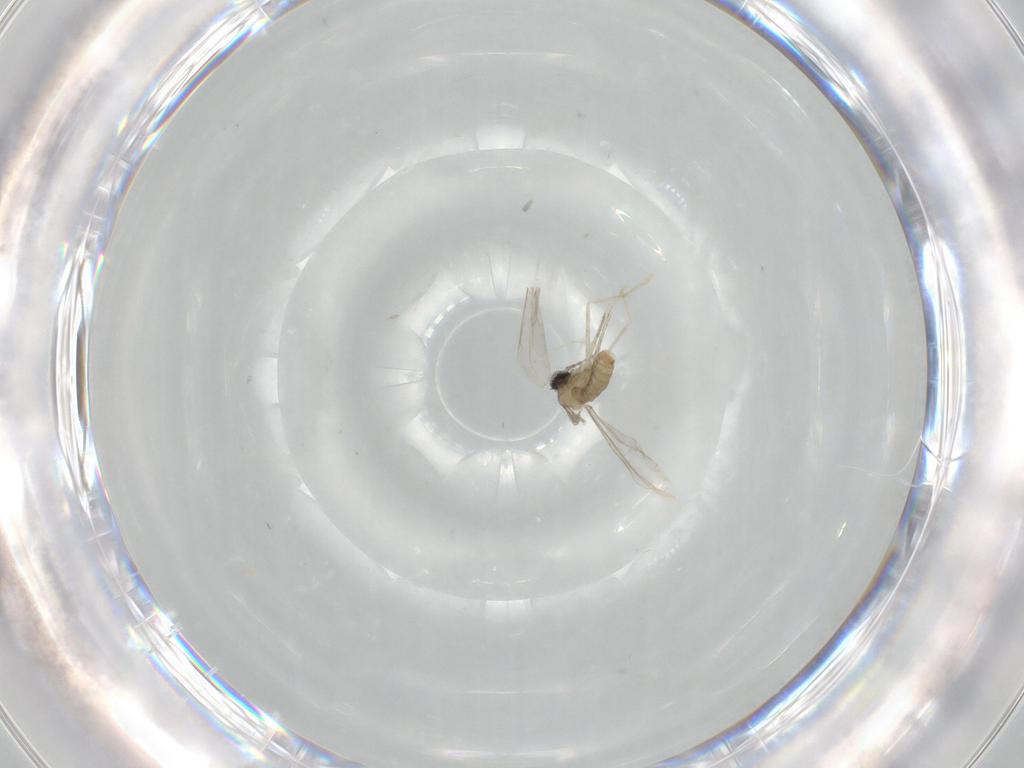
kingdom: Animalia
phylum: Arthropoda
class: Insecta
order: Diptera
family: Cecidomyiidae
